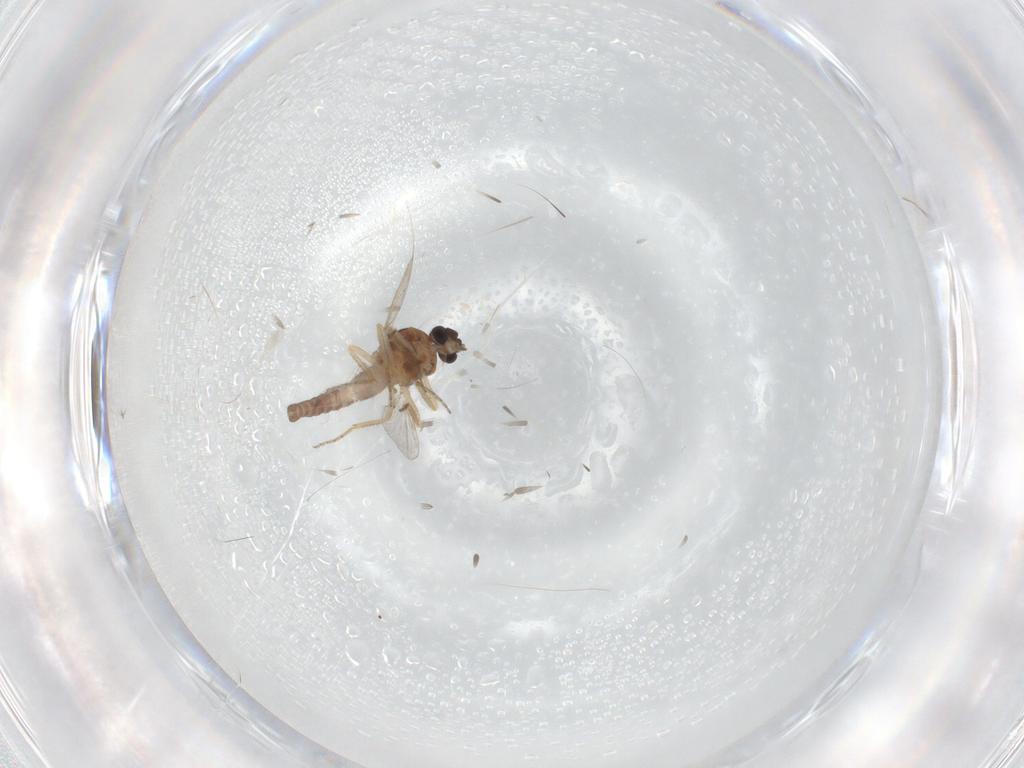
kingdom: Animalia
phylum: Arthropoda
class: Insecta
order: Diptera
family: Ceratopogonidae
